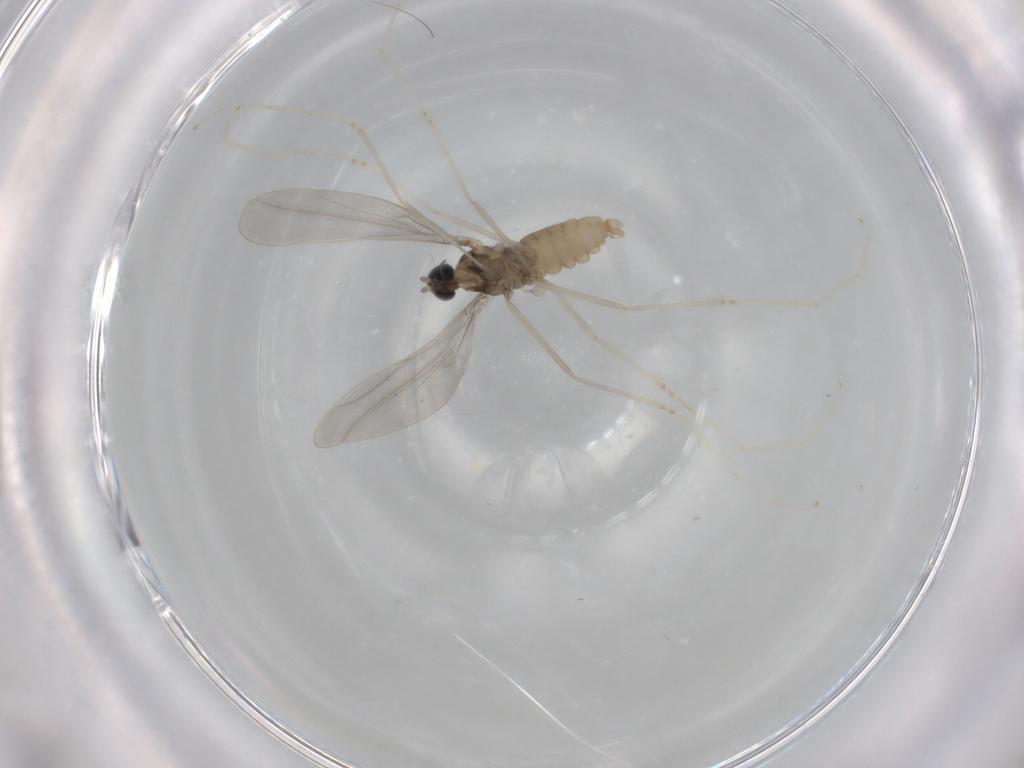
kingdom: Animalia
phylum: Arthropoda
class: Insecta
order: Diptera
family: Cecidomyiidae
